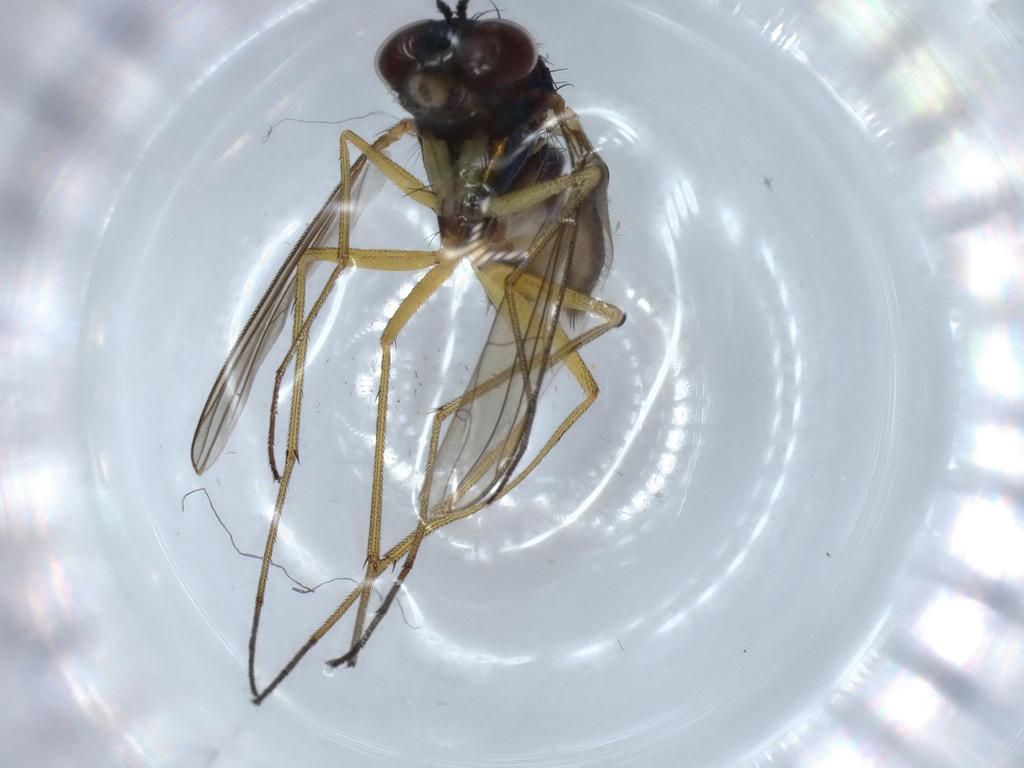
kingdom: Animalia
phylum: Arthropoda
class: Insecta
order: Diptera
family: Dolichopodidae
